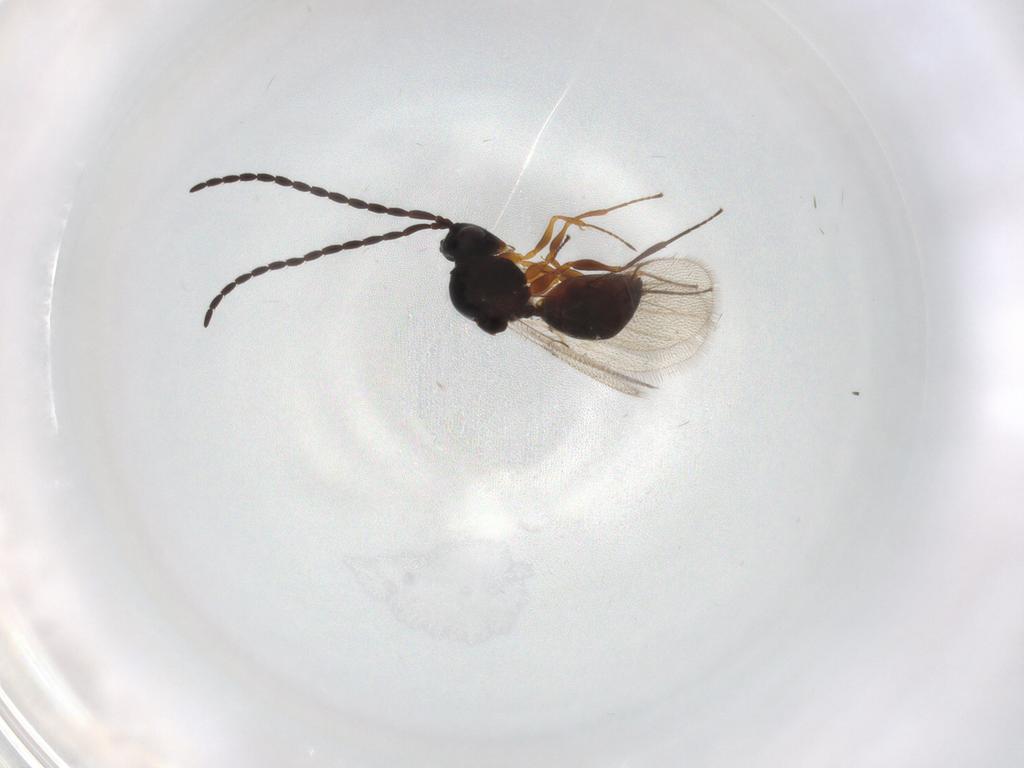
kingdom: Animalia
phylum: Arthropoda
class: Insecta
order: Hymenoptera
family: Figitidae
